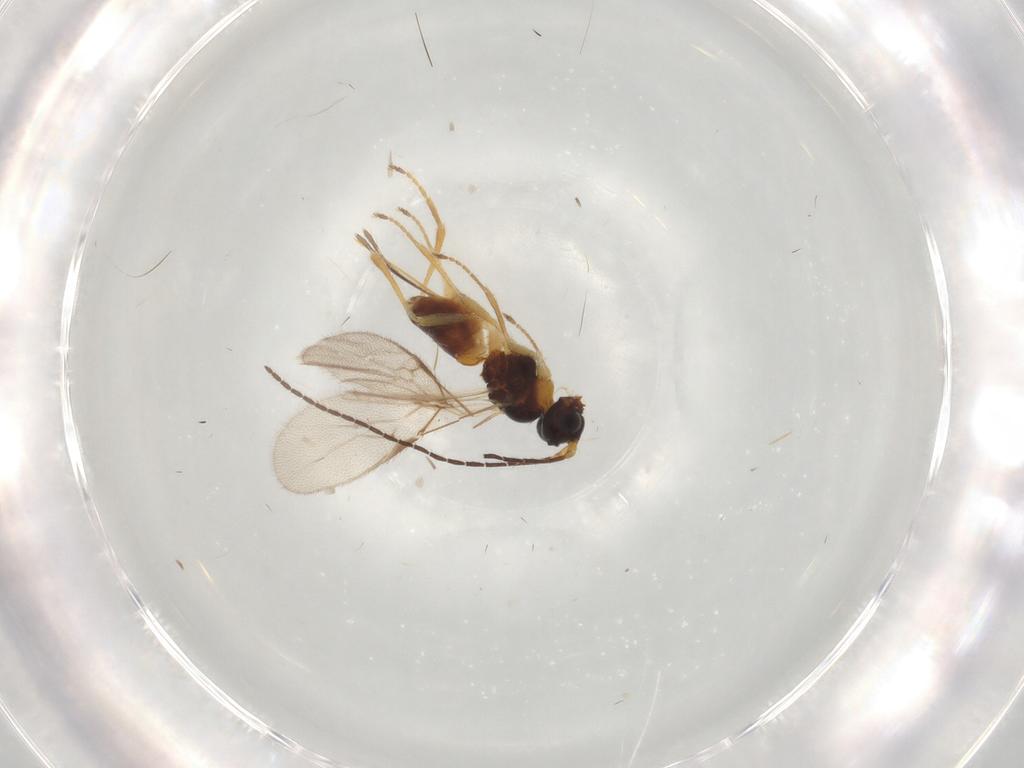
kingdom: Animalia
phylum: Arthropoda
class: Insecta
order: Hymenoptera
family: Braconidae
